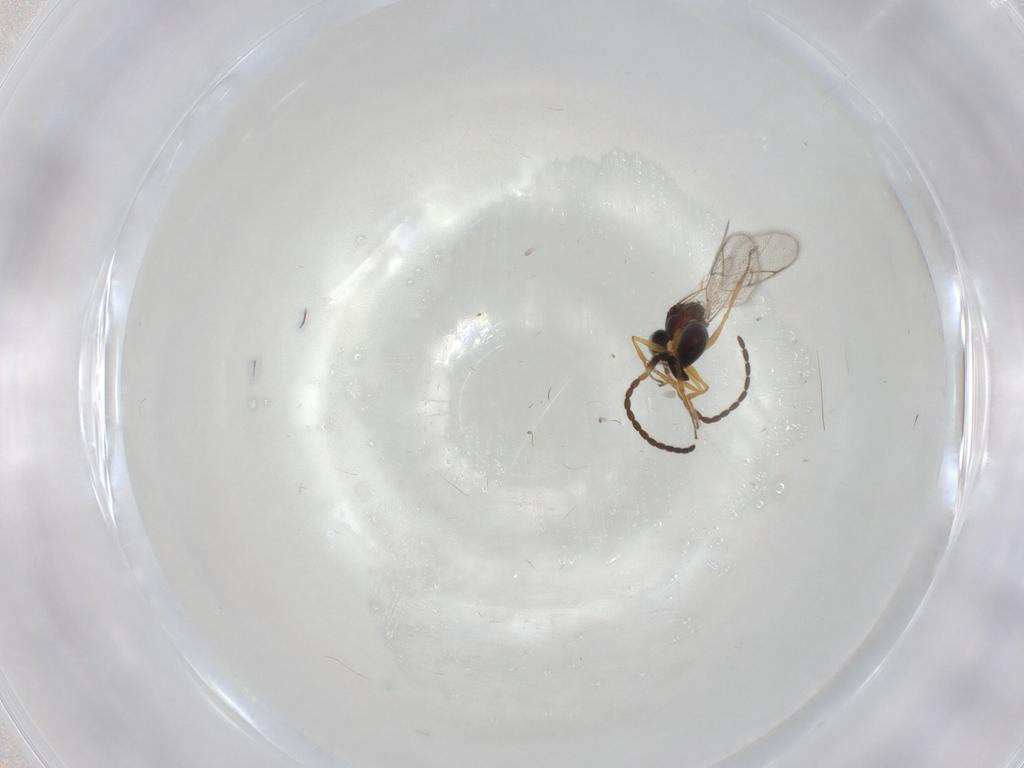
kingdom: Animalia
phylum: Arthropoda
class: Insecta
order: Hymenoptera
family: Figitidae
